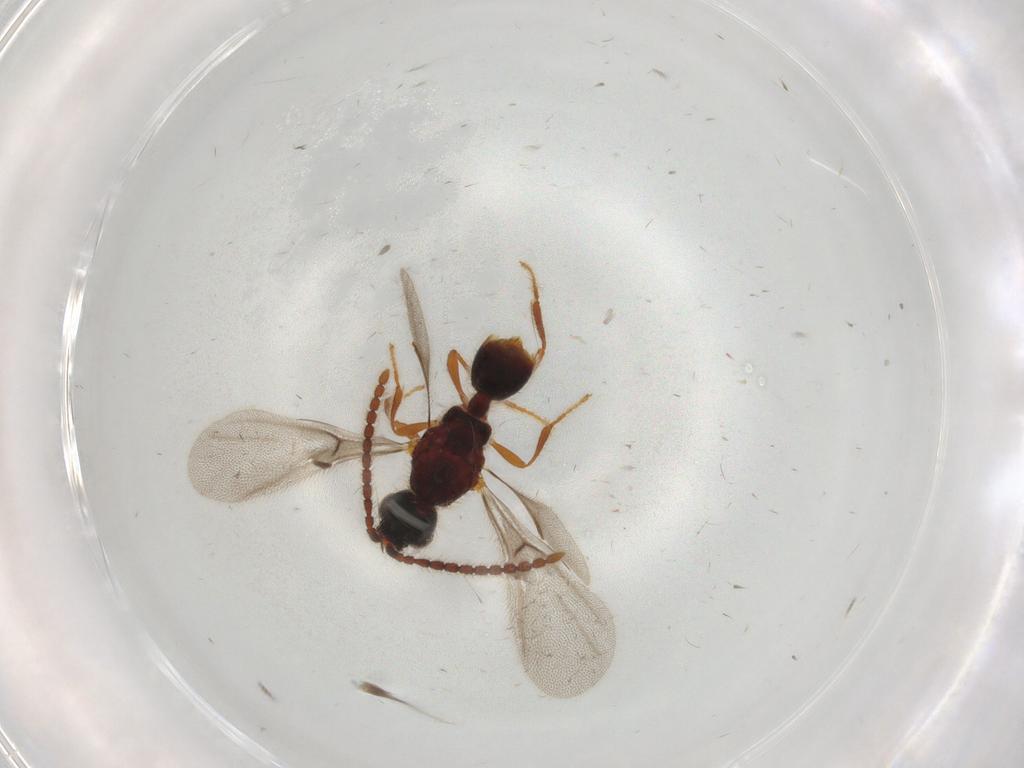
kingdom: Animalia
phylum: Arthropoda
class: Insecta
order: Hymenoptera
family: Diapriidae
